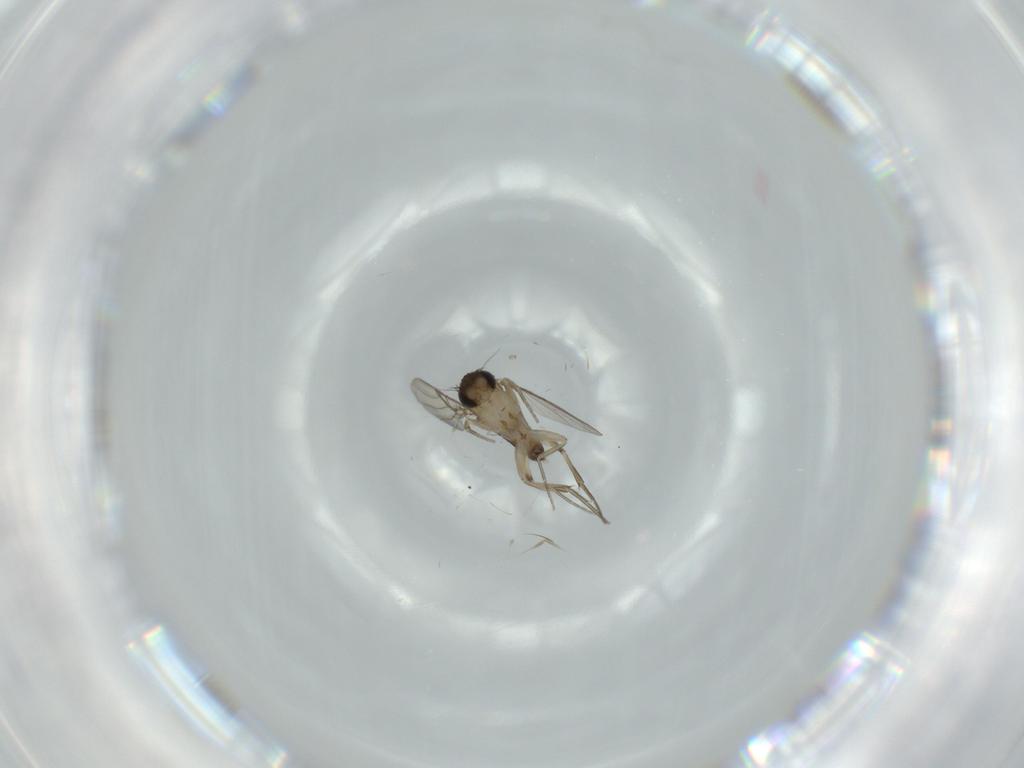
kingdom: Animalia
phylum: Arthropoda
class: Insecta
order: Diptera
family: Phoridae
